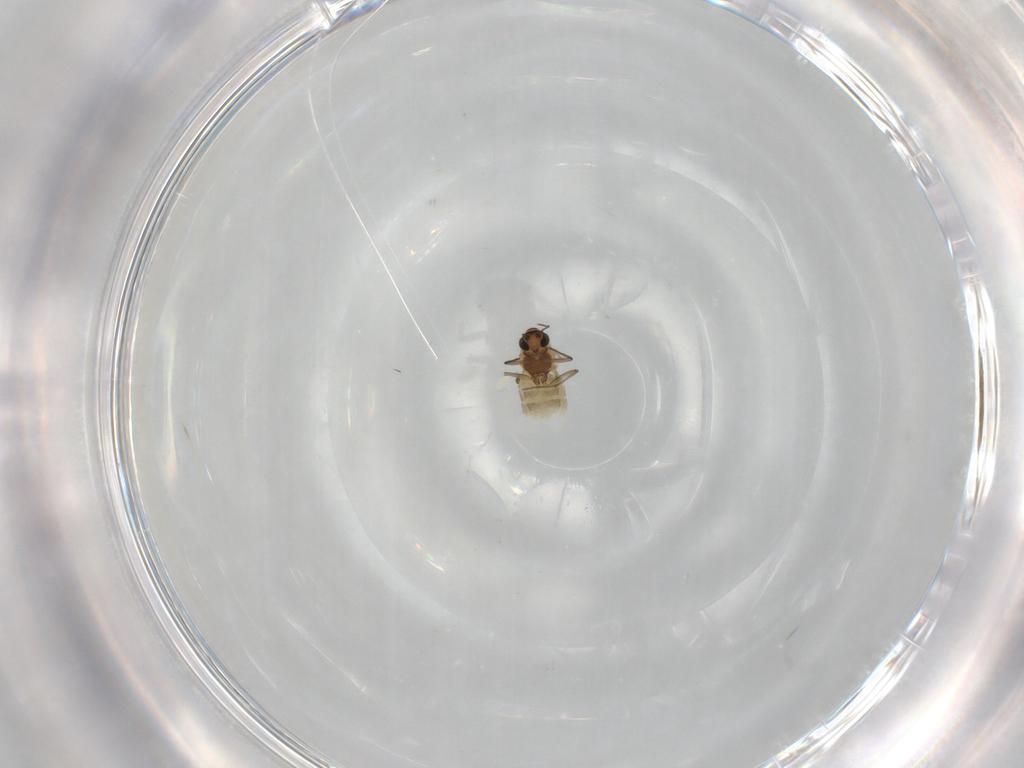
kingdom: Animalia
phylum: Arthropoda
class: Insecta
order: Diptera
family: Chironomidae
